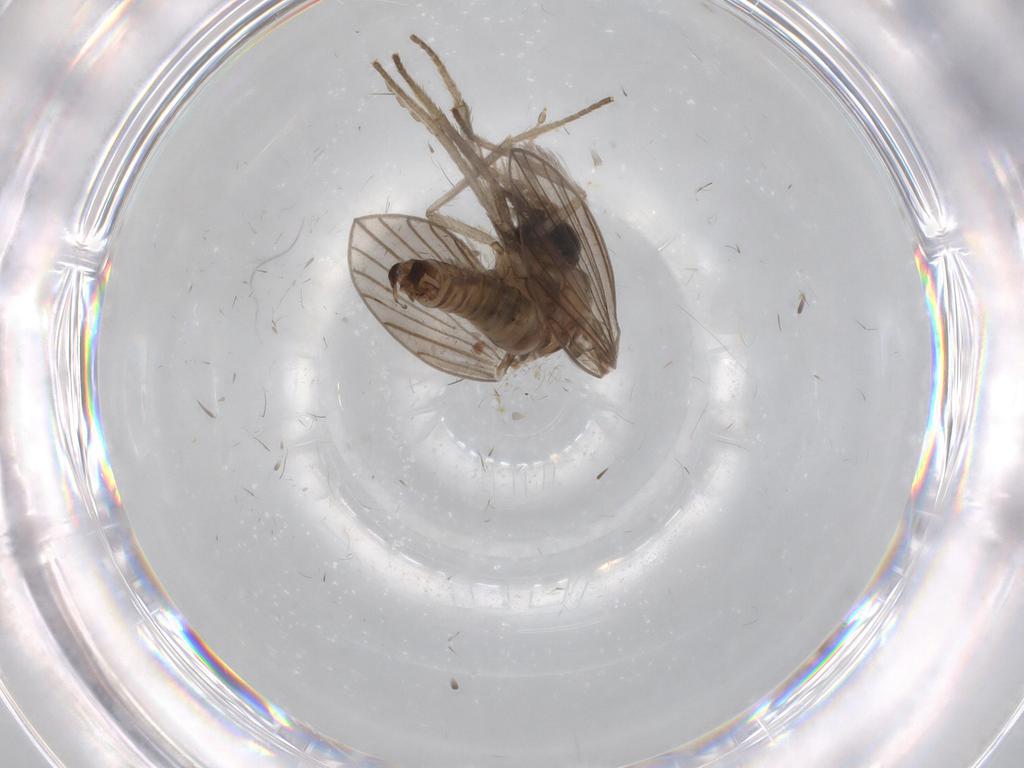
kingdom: Animalia
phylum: Arthropoda
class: Insecta
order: Diptera
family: Psychodidae
